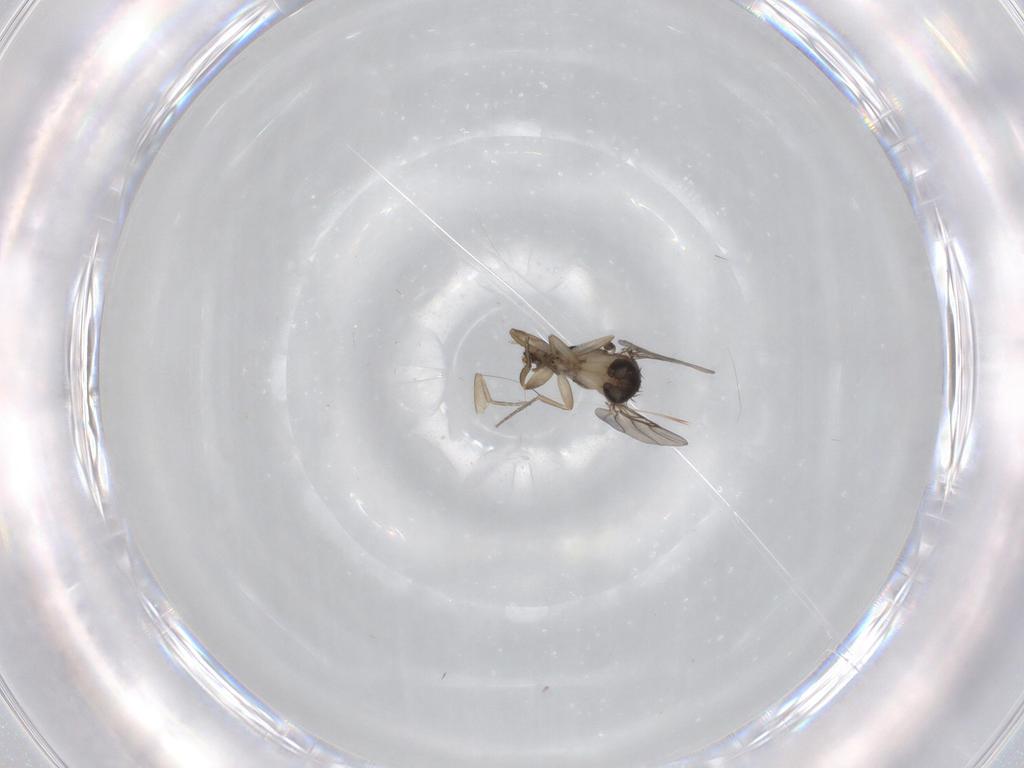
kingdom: Animalia
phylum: Arthropoda
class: Insecta
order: Diptera
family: Phoridae
